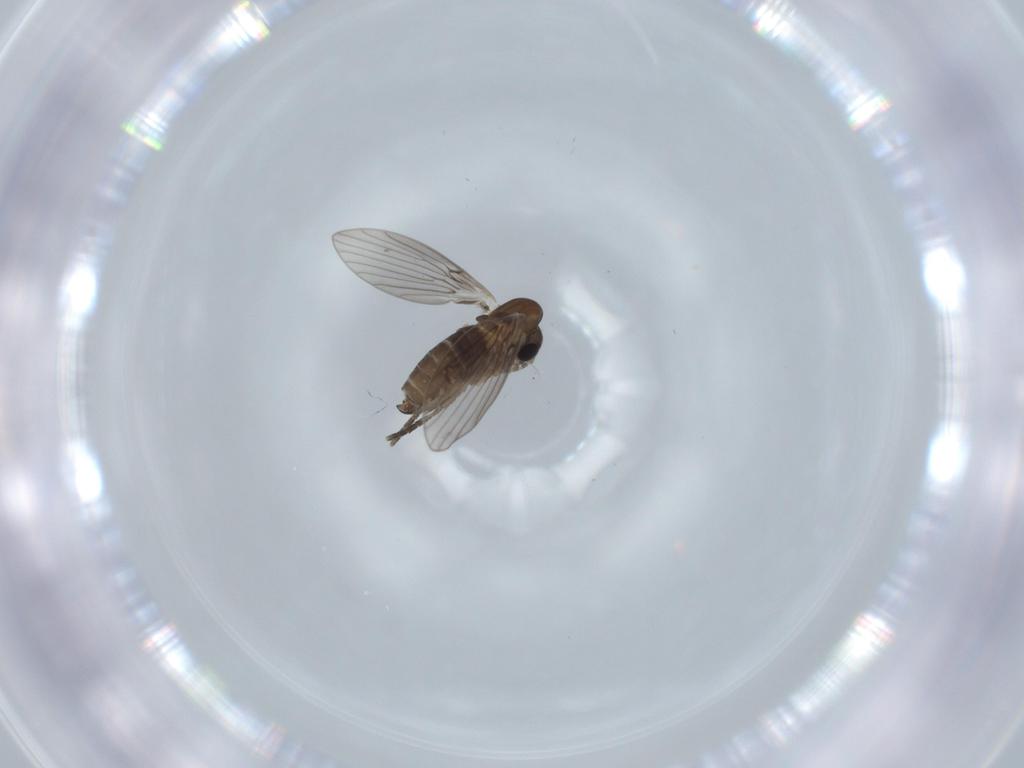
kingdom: Animalia
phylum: Arthropoda
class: Insecta
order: Diptera
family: Psychodidae
